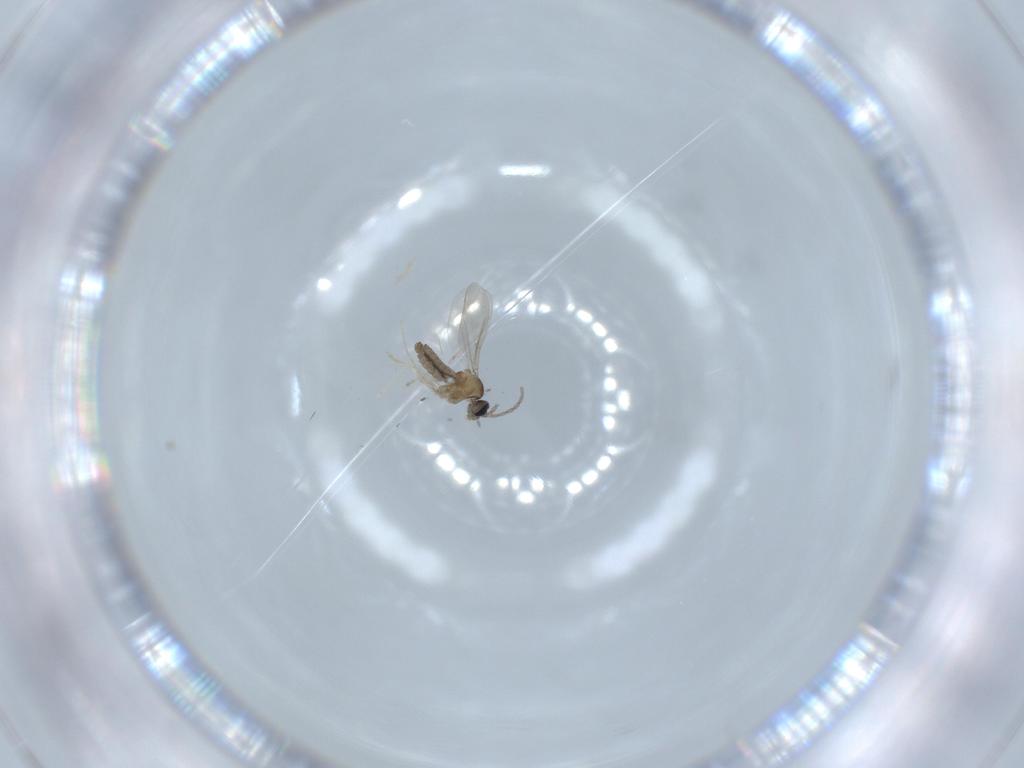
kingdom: Animalia
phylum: Arthropoda
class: Insecta
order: Diptera
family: Cecidomyiidae
